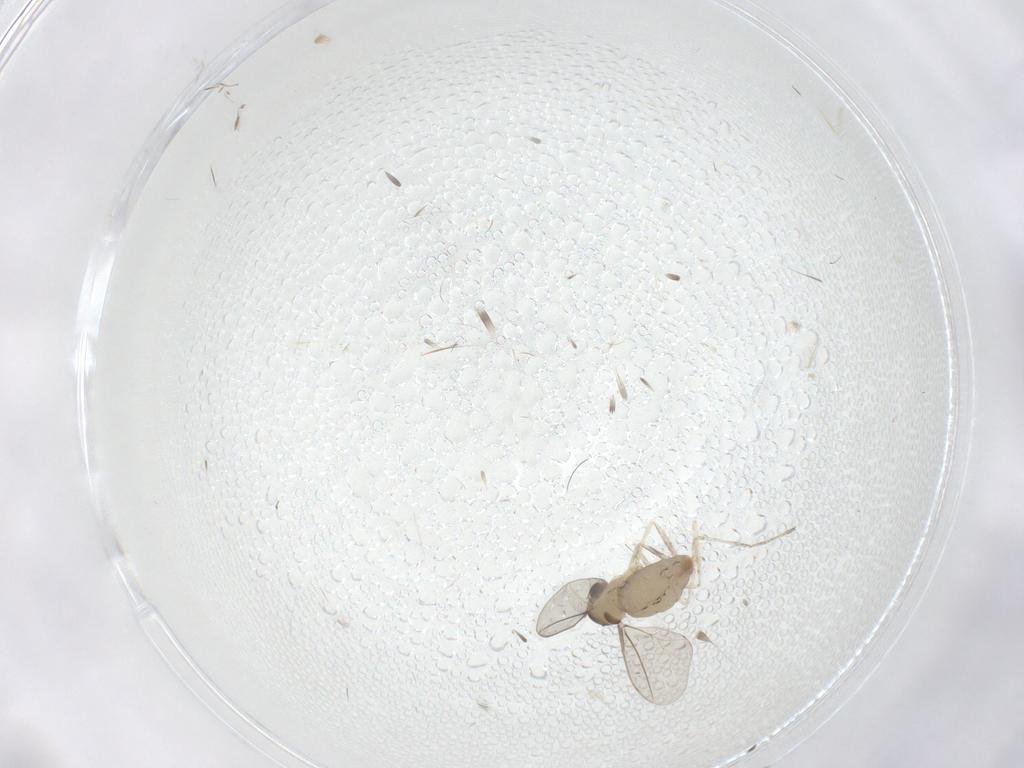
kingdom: Animalia
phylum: Arthropoda
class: Insecta
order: Diptera
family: Cecidomyiidae
